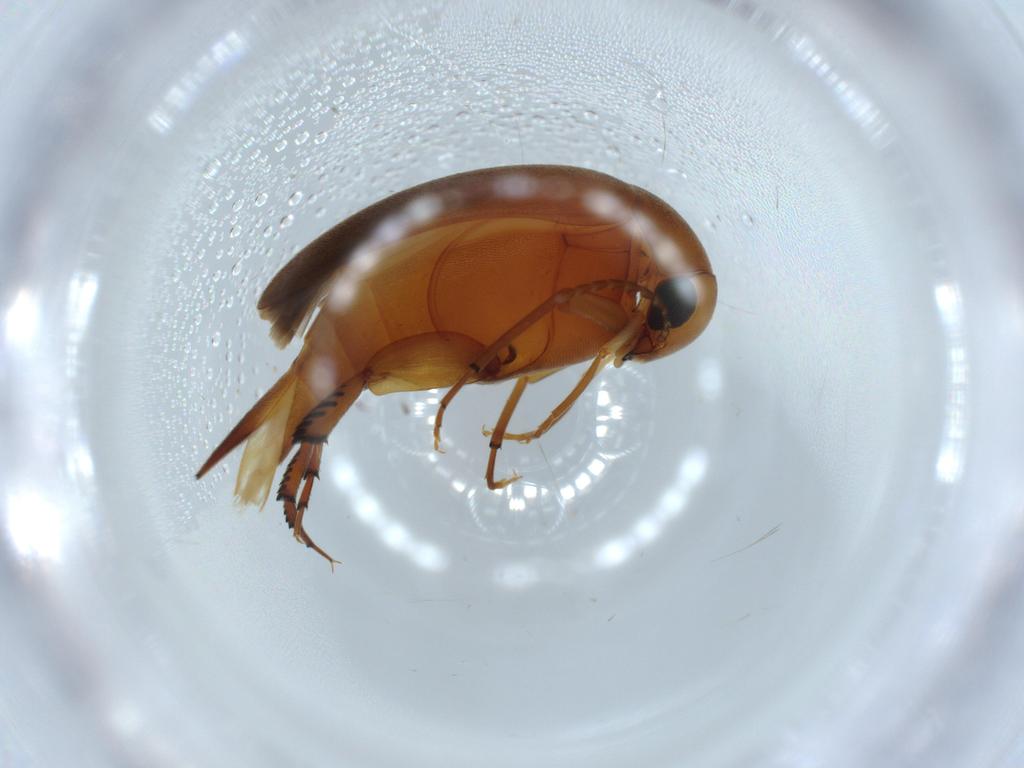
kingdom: Animalia
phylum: Arthropoda
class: Insecta
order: Coleoptera
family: Mordellidae
